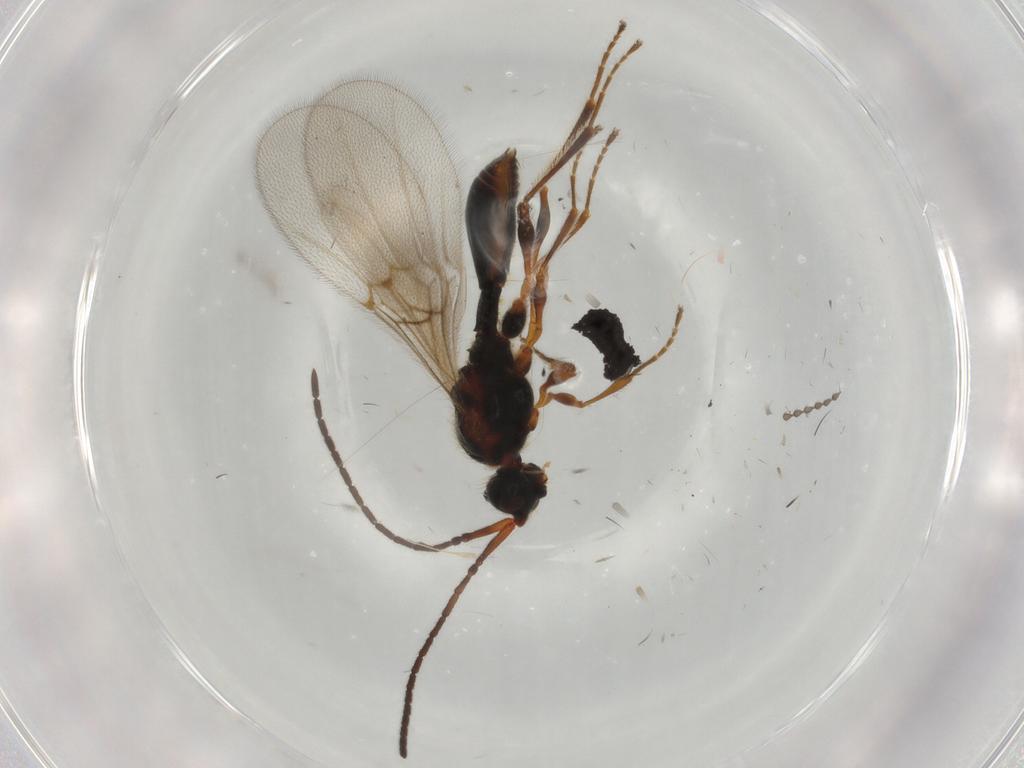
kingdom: Animalia
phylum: Arthropoda
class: Insecta
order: Hymenoptera
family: Diapriidae
